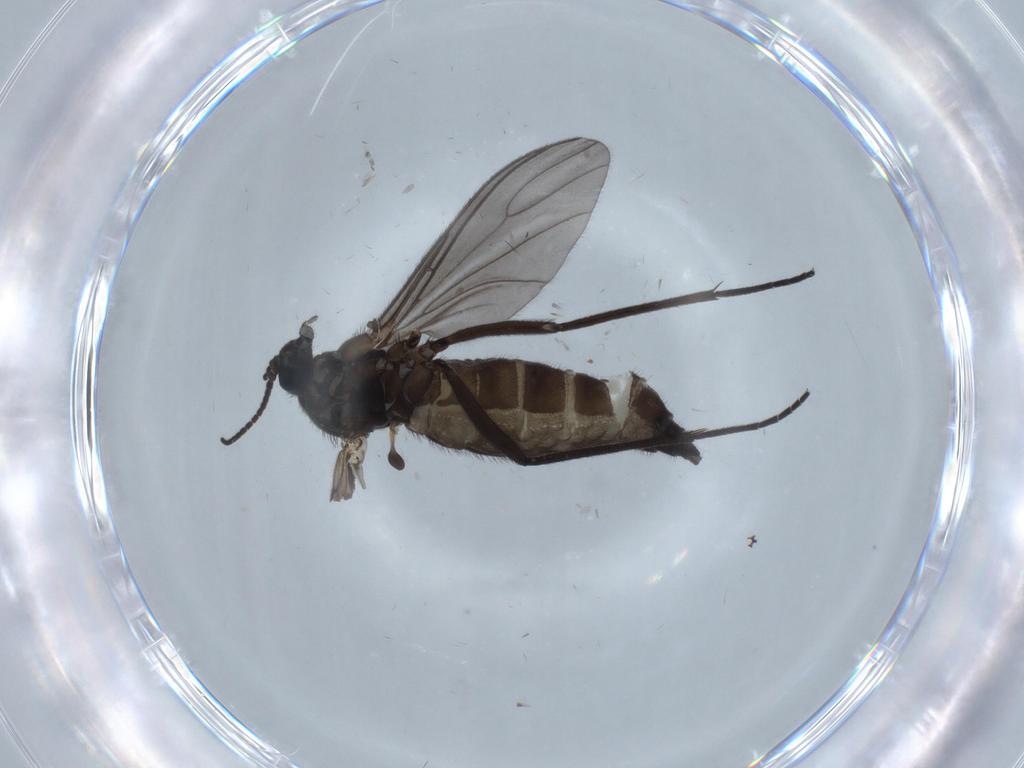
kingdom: Animalia
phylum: Arthropoda
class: Insecta
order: Diptera
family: Sciaridae
